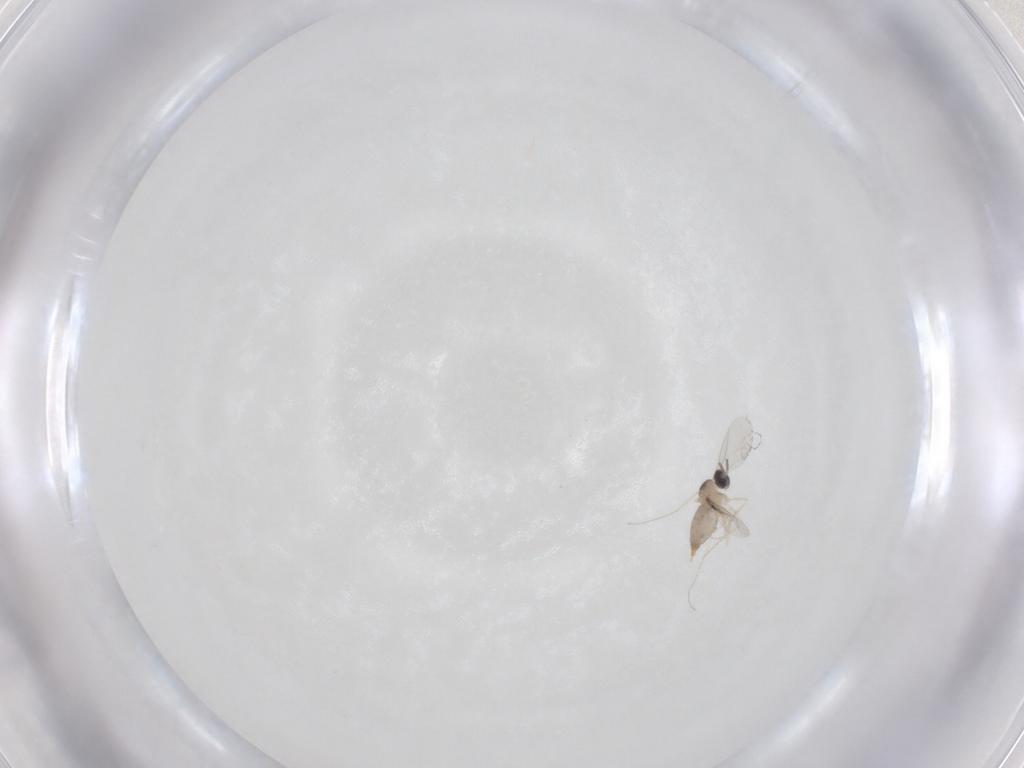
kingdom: Animalia
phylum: Arthropoda
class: Insecta
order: Diptera
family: Cecidomyiidae
